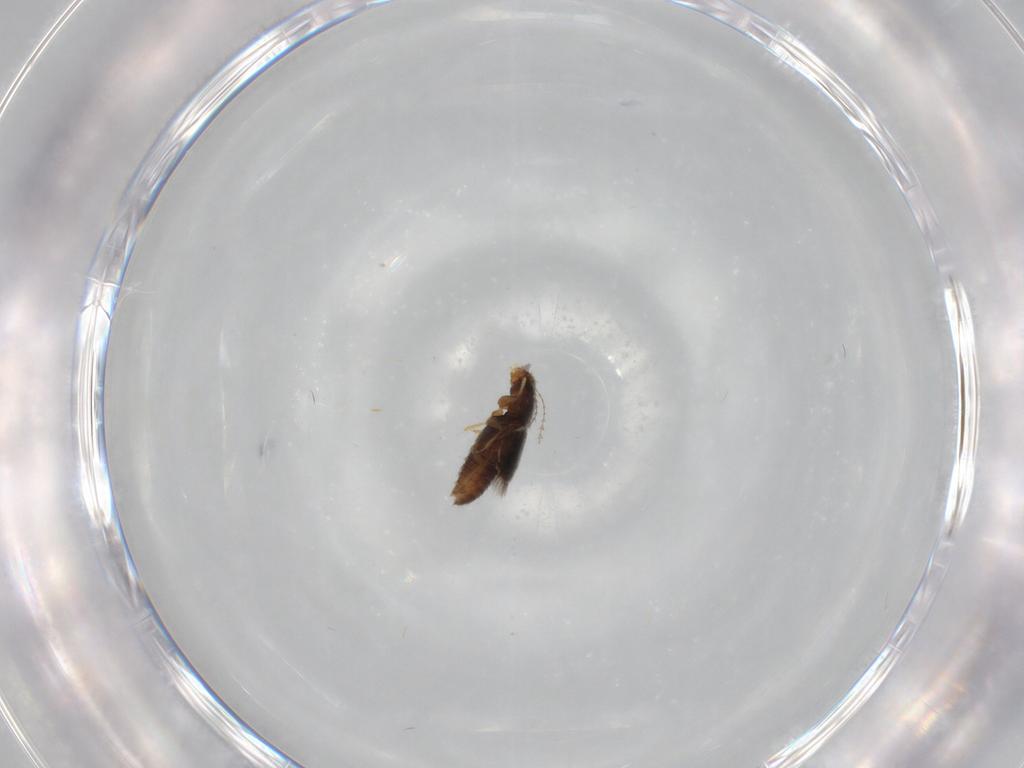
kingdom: Animalia
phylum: Arthropoda
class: Insecta
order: Coleoptera
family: Ptiliidae
